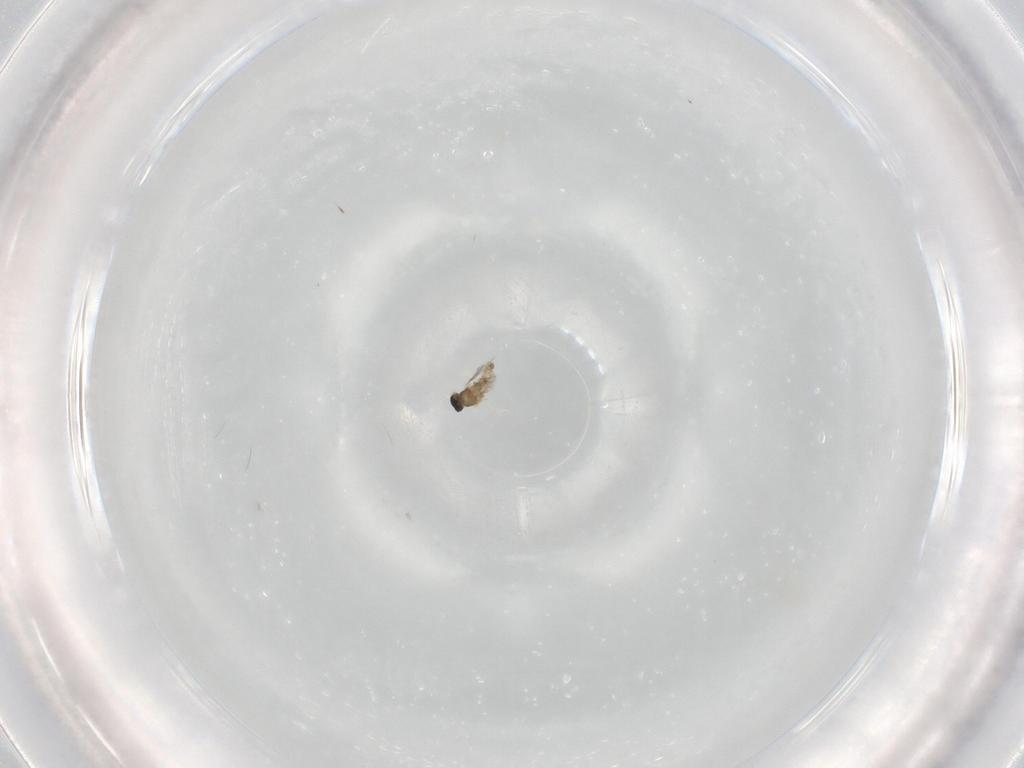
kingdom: Animalia
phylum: Arthropoda
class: Insecta
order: Diptera
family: Cecidomyiidae
